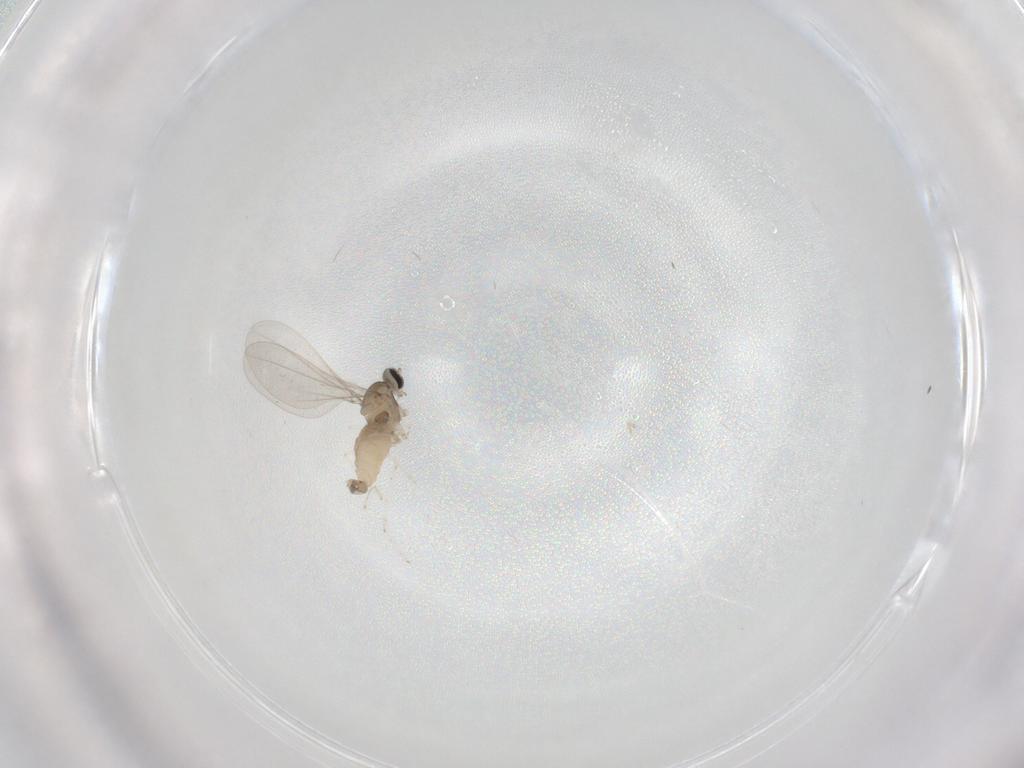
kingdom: Animalia
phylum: Arthropoda
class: Insecta
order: Diptera
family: Cecidomyiidae
